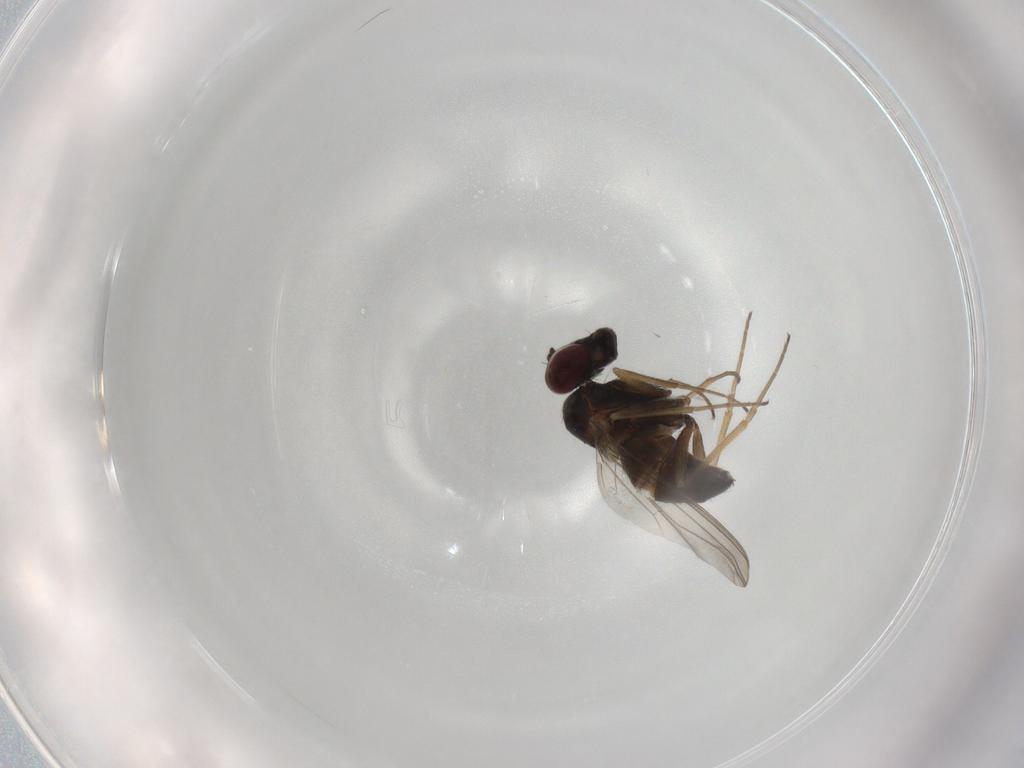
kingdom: Animalia
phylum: Arthropoda
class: Insecta
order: Diptera
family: Dolichopodidae
